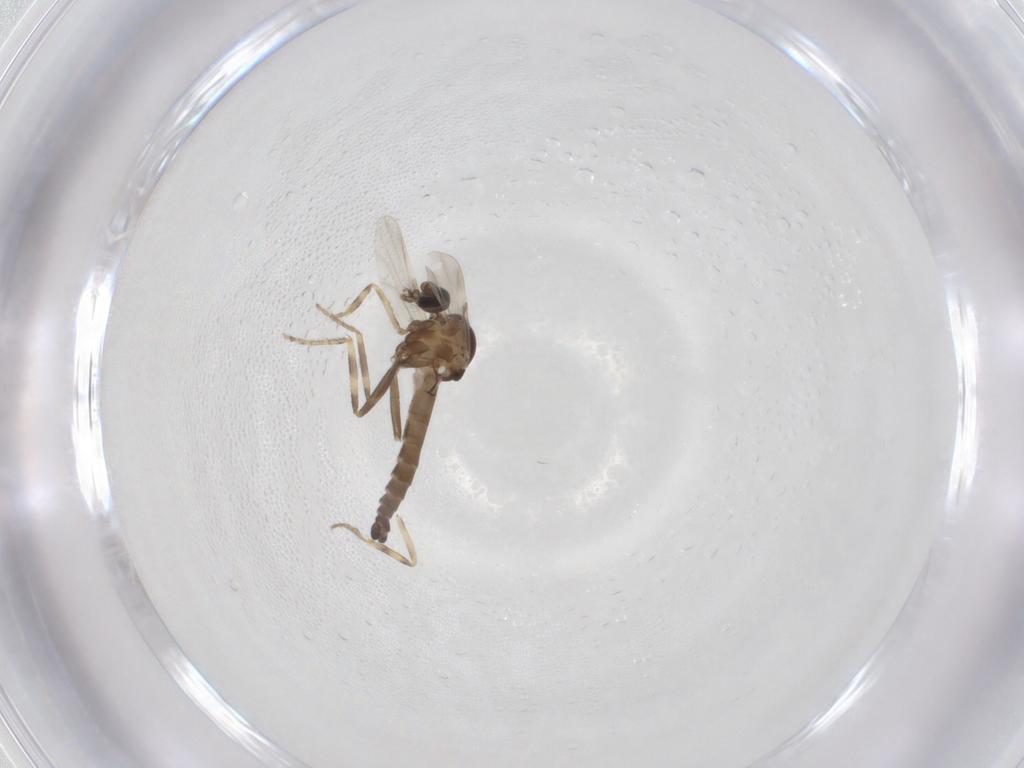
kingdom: Animalia
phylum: Arthropoda
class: Insecta
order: Diptera
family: Ceratopogonidae
